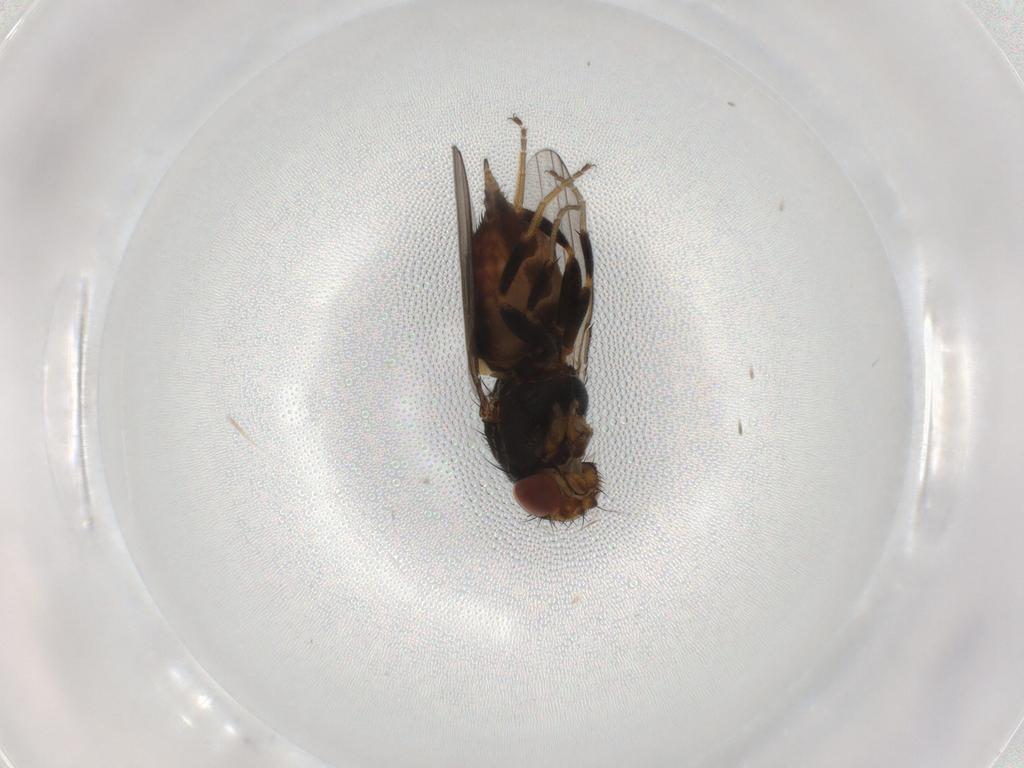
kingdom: Animalia
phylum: Arthropoda
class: Insecta
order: Diptera
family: Milichiidae
